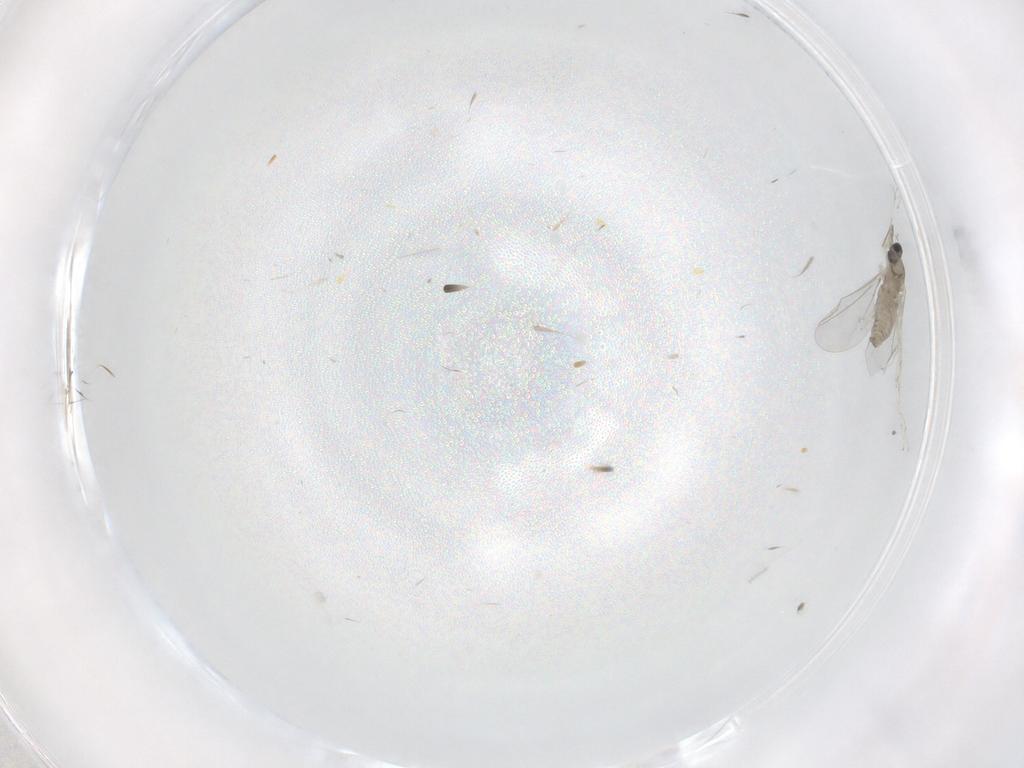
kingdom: Animalia
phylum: Arthropoda
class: Insecta
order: Diptera
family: Cecidomyiidae
